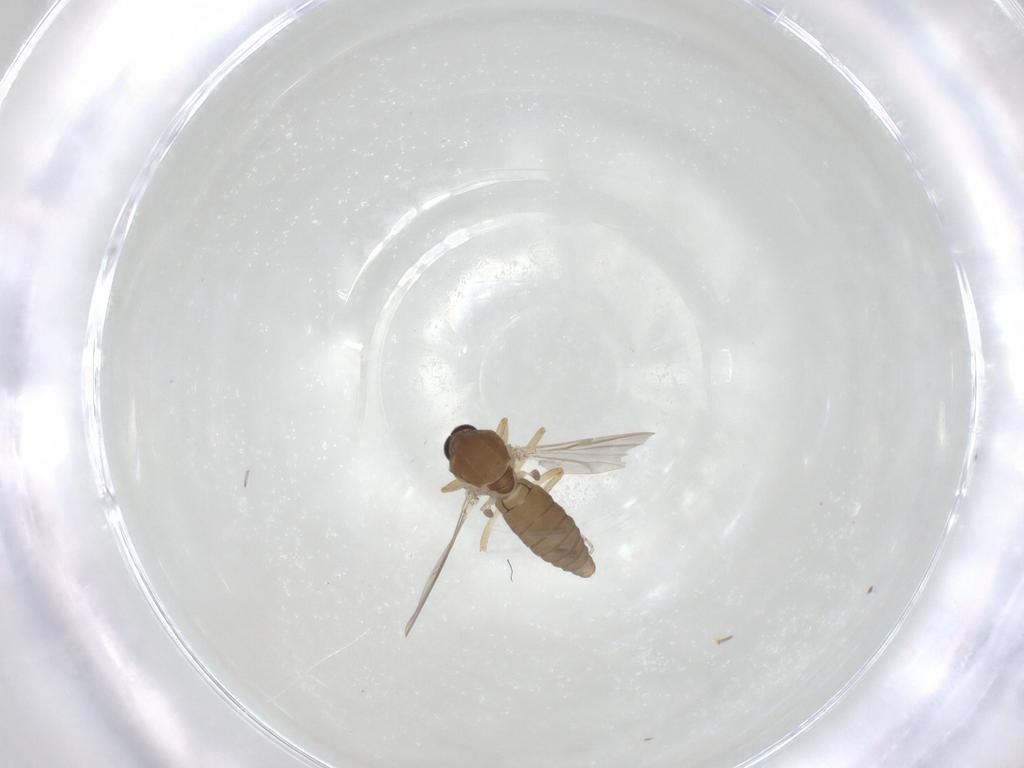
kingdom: Animalia
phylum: Arthropoda
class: Insecta
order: Diptera
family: Ceratopogonidae
